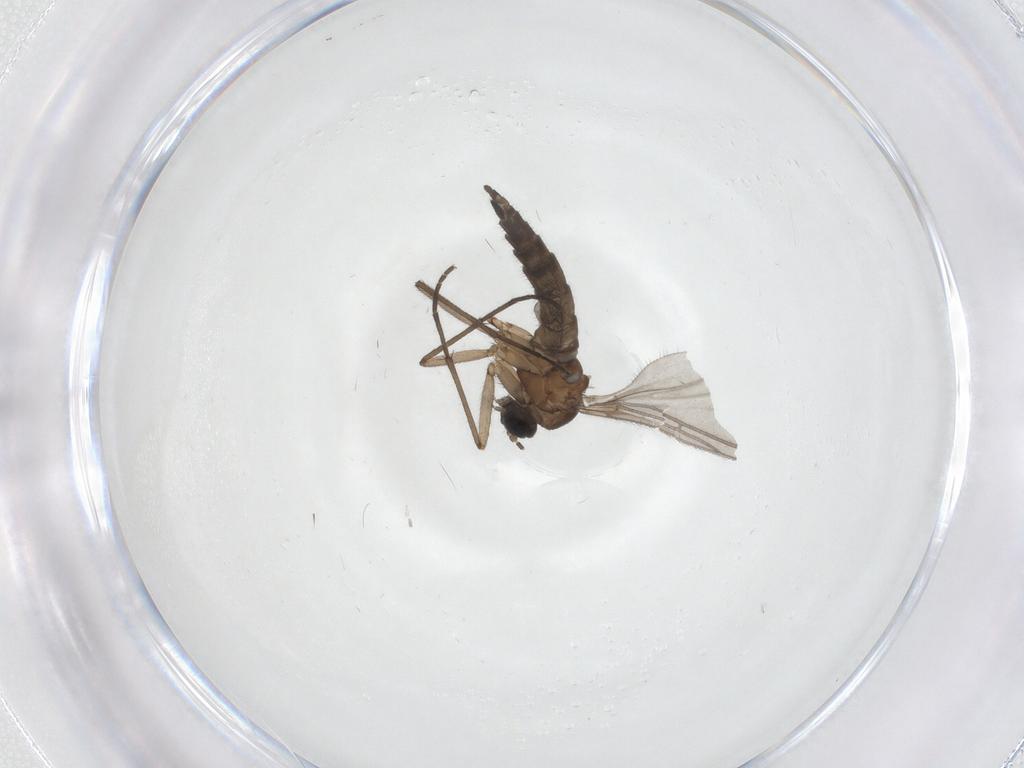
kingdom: Animalia
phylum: Arthropoda
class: Insecta
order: Diptera
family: Sciaridae
